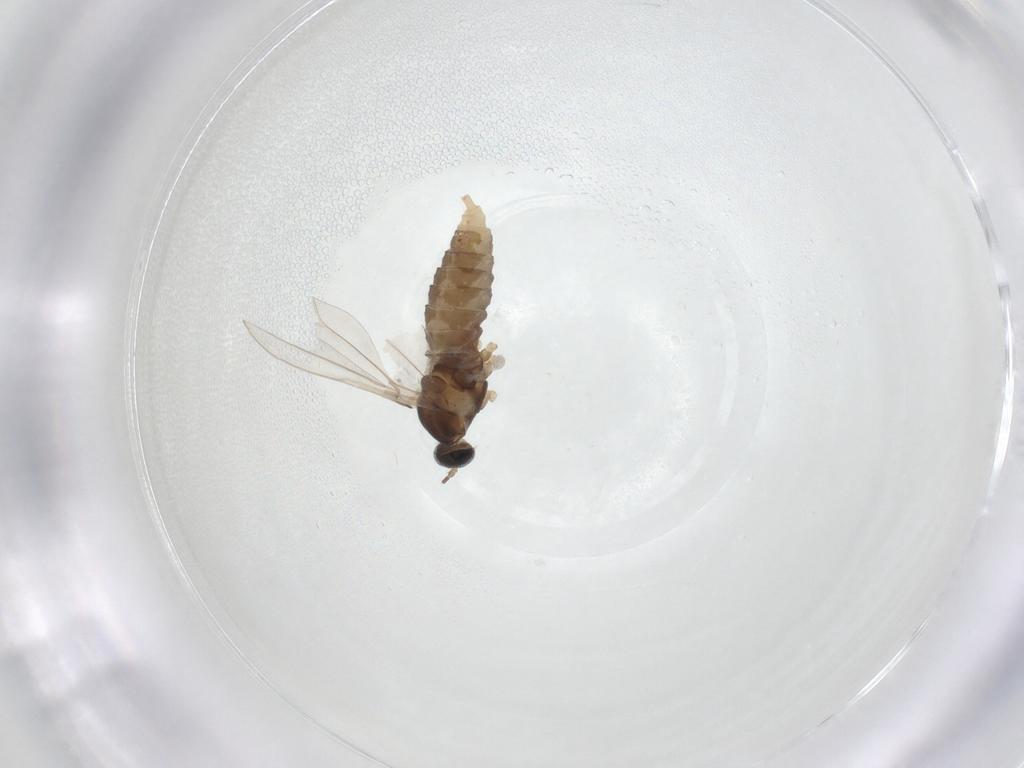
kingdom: Animalia
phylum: Arthropoda
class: Insecta
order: Diptera
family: Cecidomyiidae
